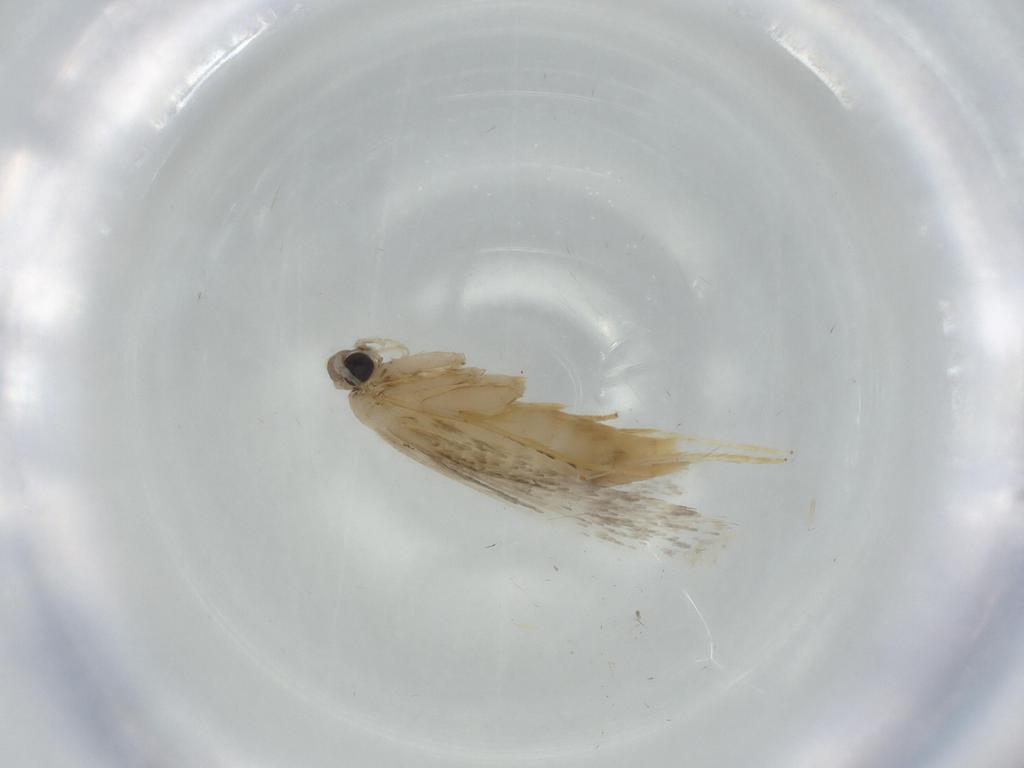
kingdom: Animalia
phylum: Arthropoda
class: Insecta
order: Lepidoptera
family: Tineidae
